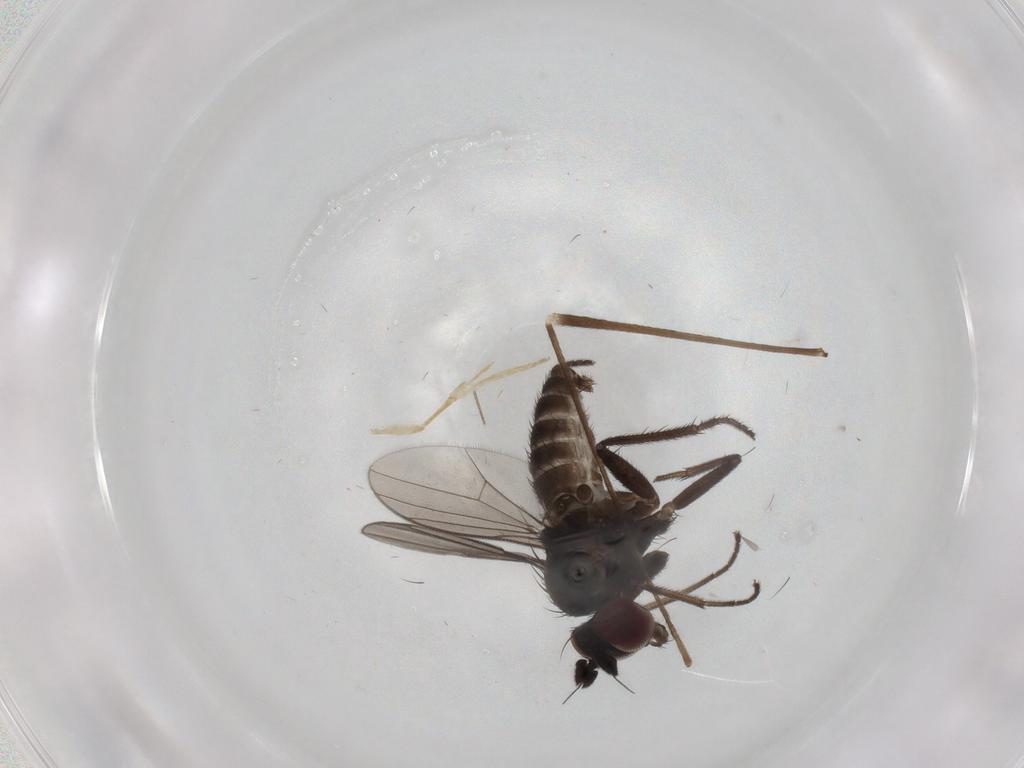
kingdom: Animalia
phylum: Arthropoda
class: Insecta
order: Diptera
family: Dolichopodidae
